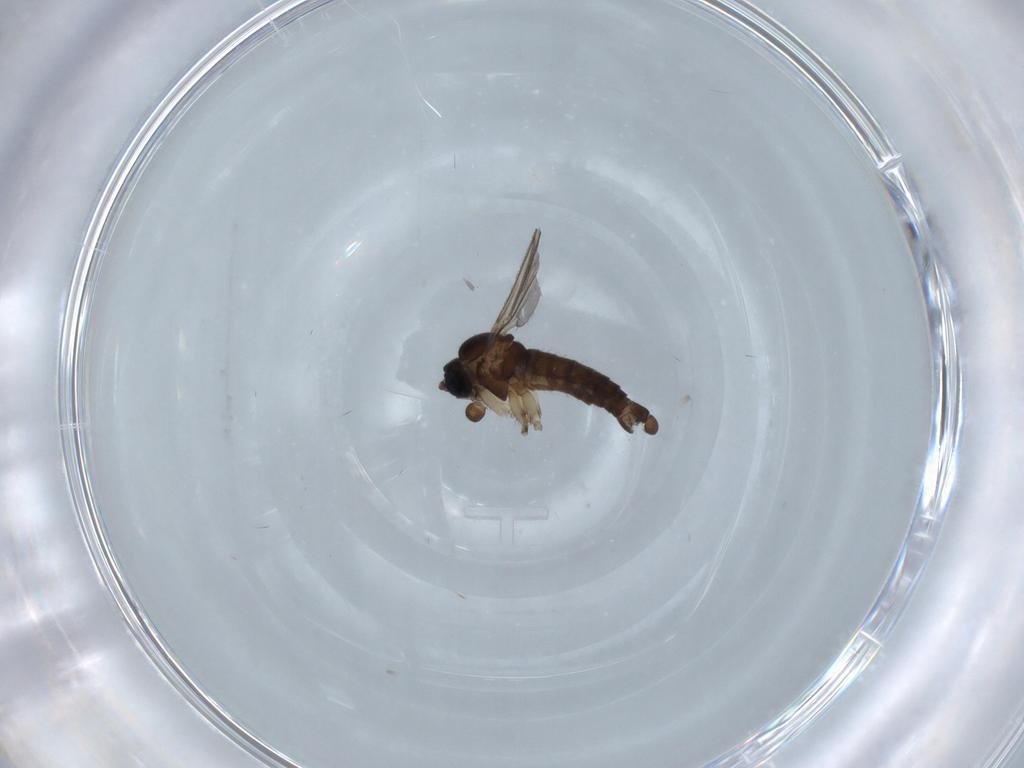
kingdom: Animalia
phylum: Arthropoda
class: Insecta
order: Diptera
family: Sciaridae
